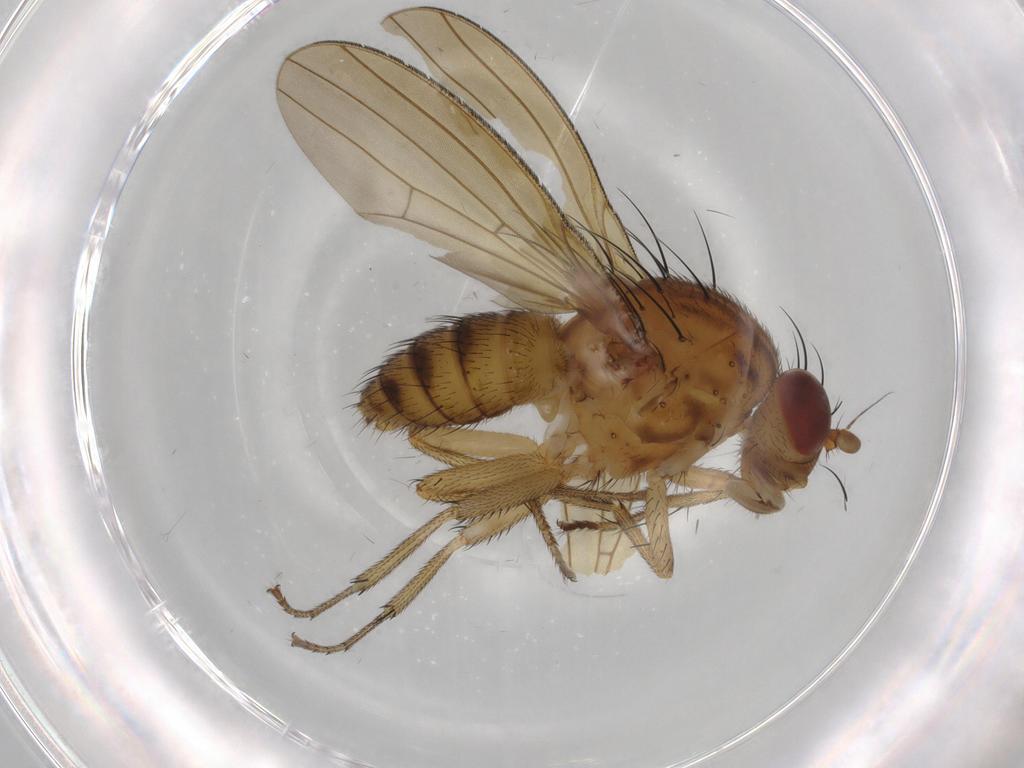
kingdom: Animalia
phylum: Arthropoda
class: Insecta
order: Diptera
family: Lauxaniidae
